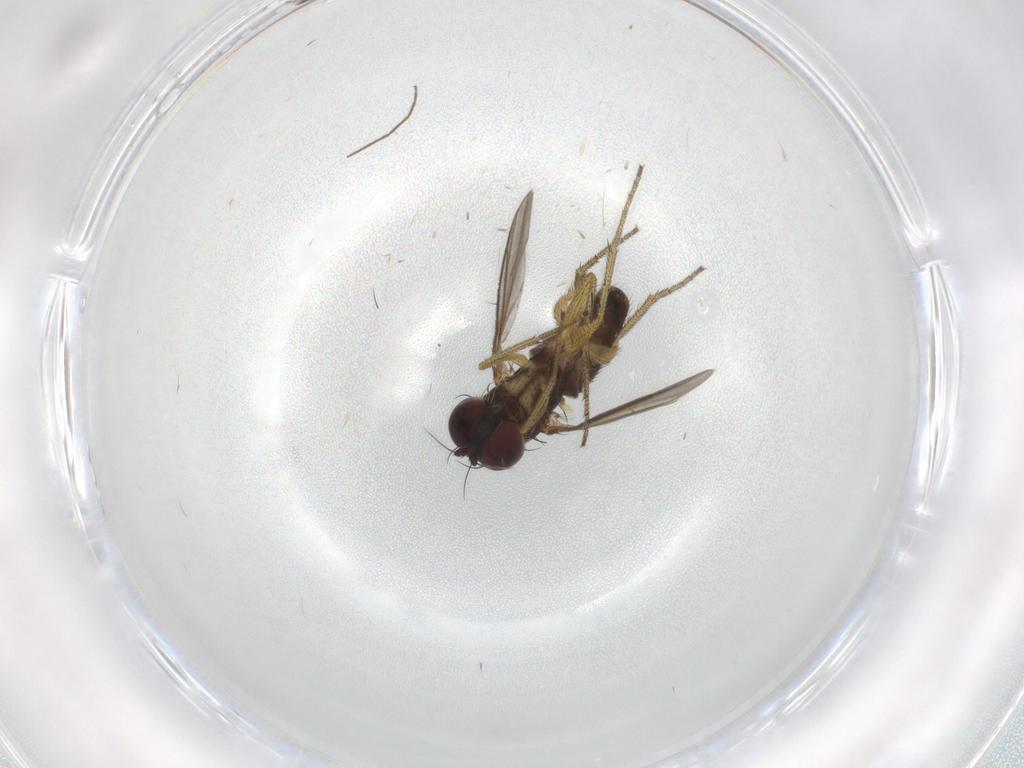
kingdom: Animalia
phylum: Arthropoda
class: Insecta
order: Diptera
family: Ceratopogonidae
